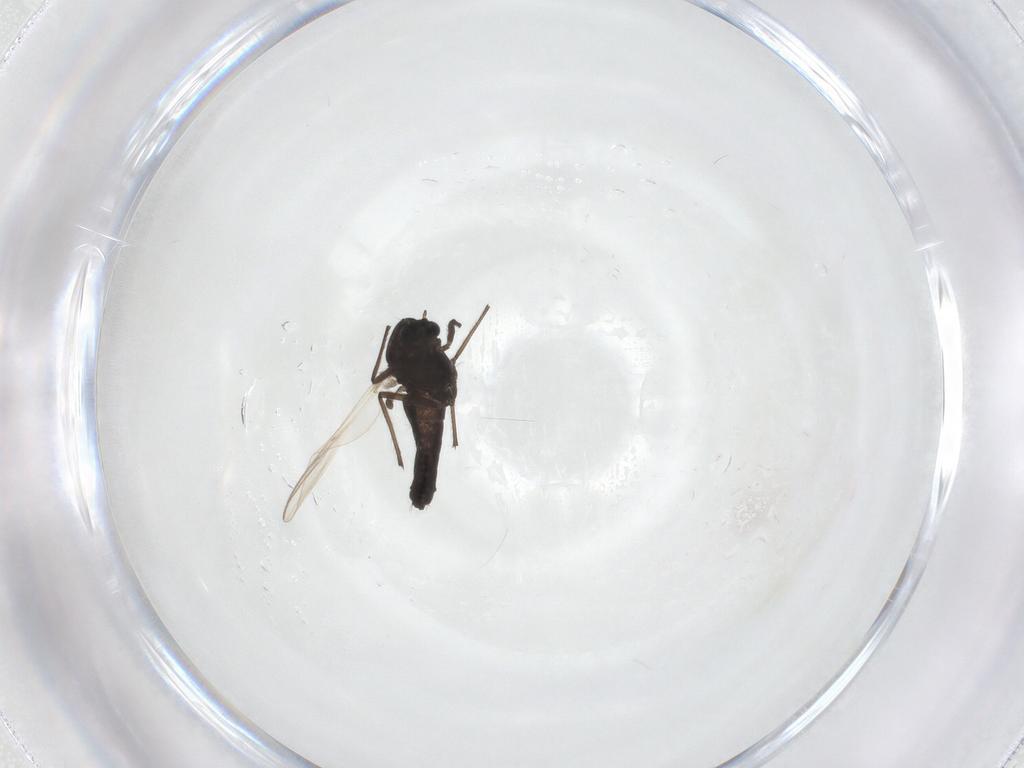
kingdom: Animalia
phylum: Arthropoda
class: Insecta
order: Diptera
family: Chironomidae
